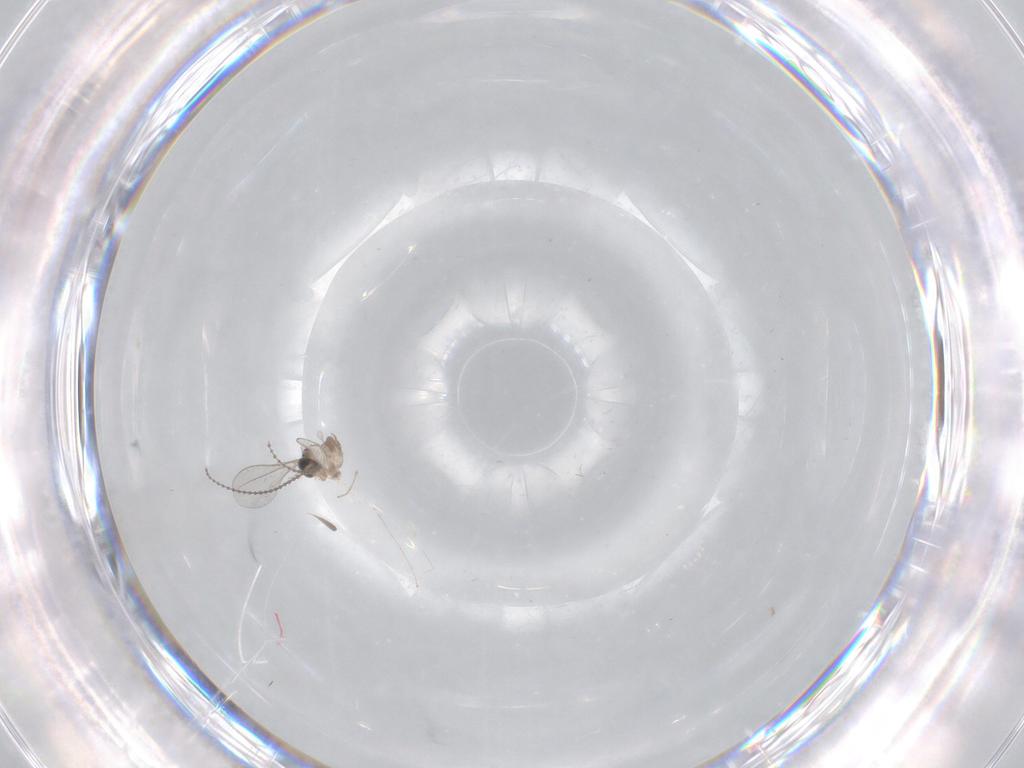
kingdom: Animalia
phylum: Arthropoda
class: Insecta
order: Diptera
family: Cecidomyiidae
